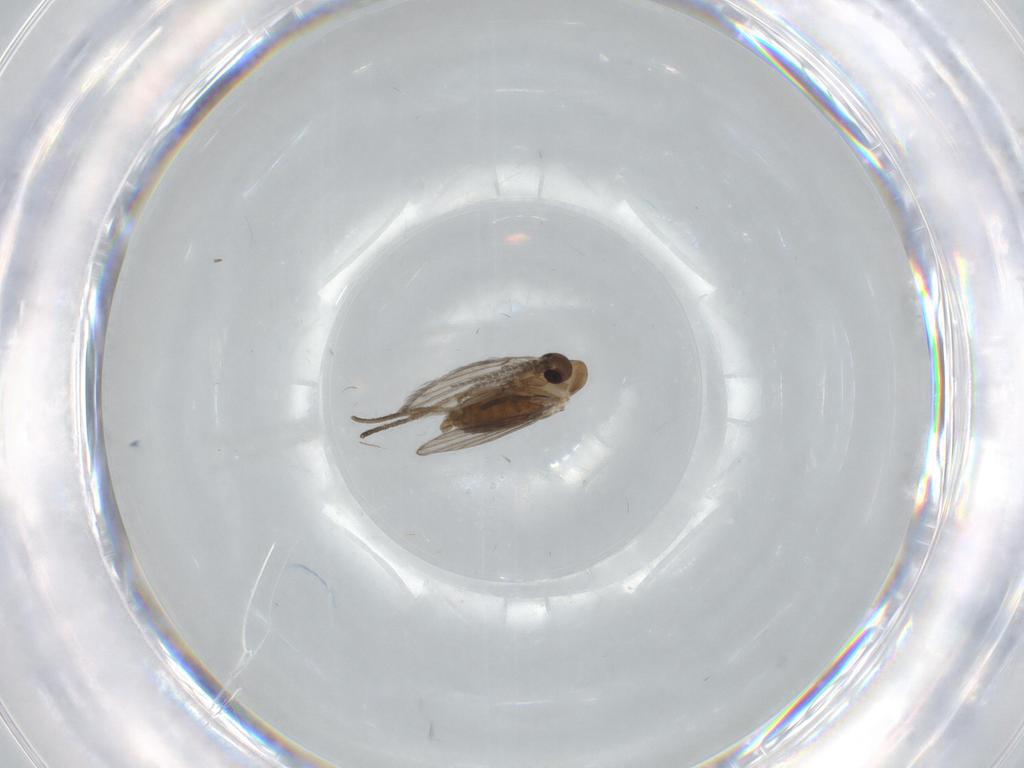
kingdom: Animalia
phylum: Arthropoda
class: Insecta
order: Diptera
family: Psychodidae
